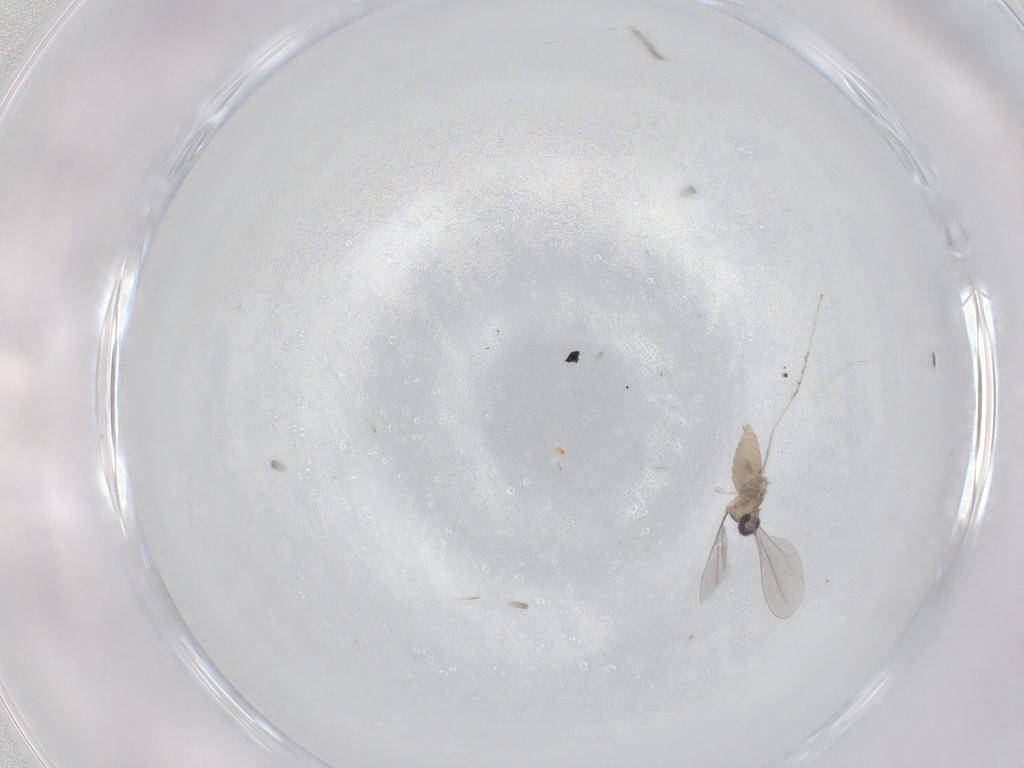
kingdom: Animalia
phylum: Arthropoda
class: Insecta
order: Diptera
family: Cecidomyiidae
